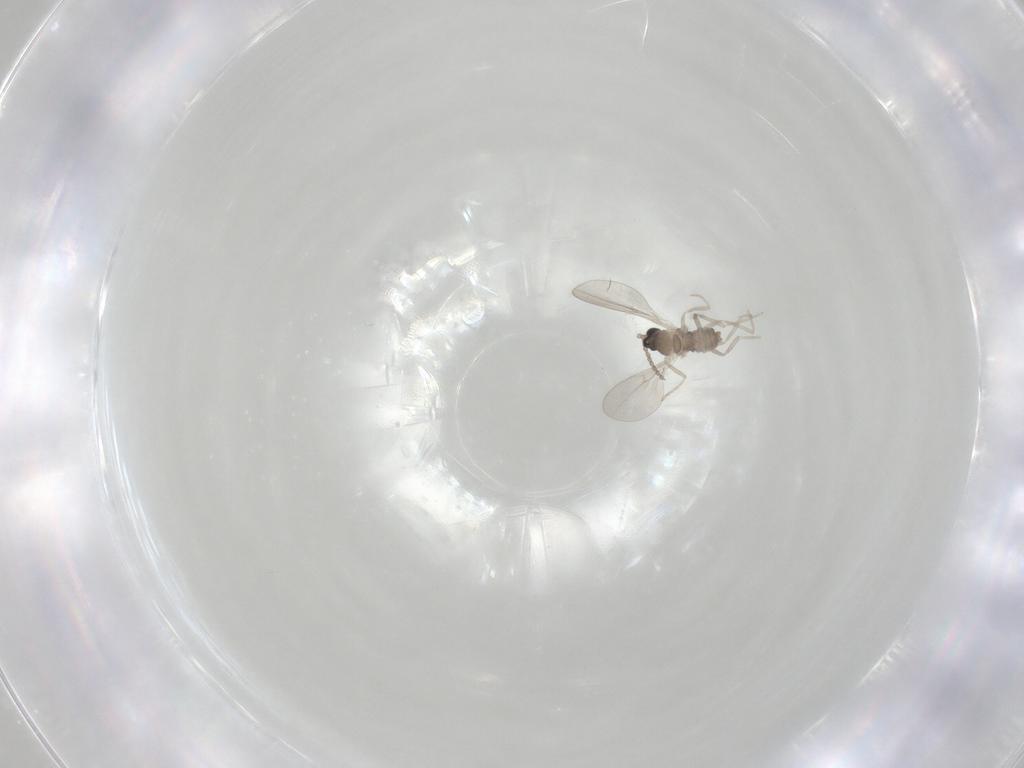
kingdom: Animalia
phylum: Arthropoda
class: Insecta
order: Diptera
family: Cecidomyiidae
